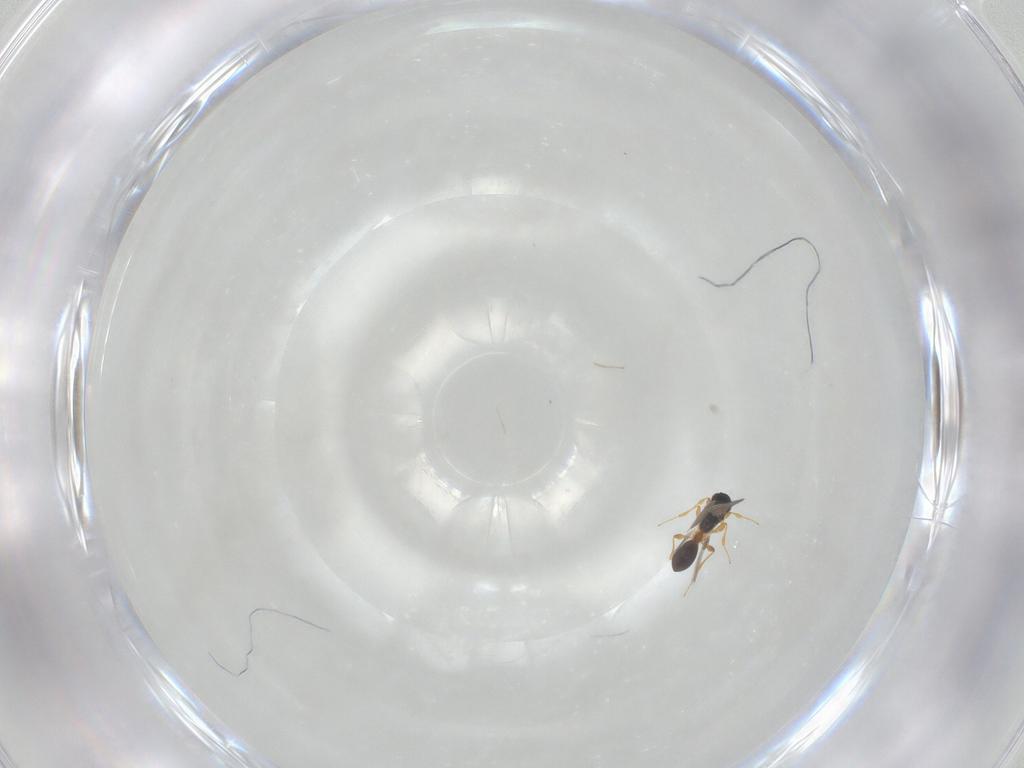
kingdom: Animalia
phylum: Arthropoda
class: Insecta
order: Hymenoptera
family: Platygastridae
